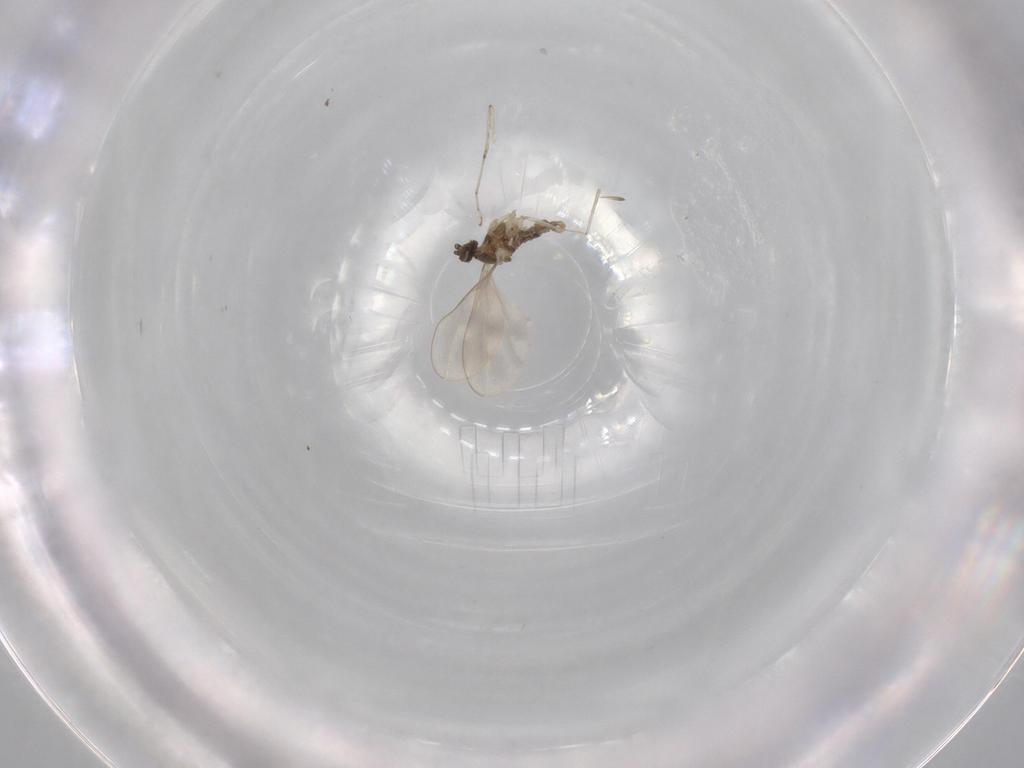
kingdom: Animalia
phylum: Arthropoda
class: Insecta
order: Diptera
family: Cecidomyiidae
